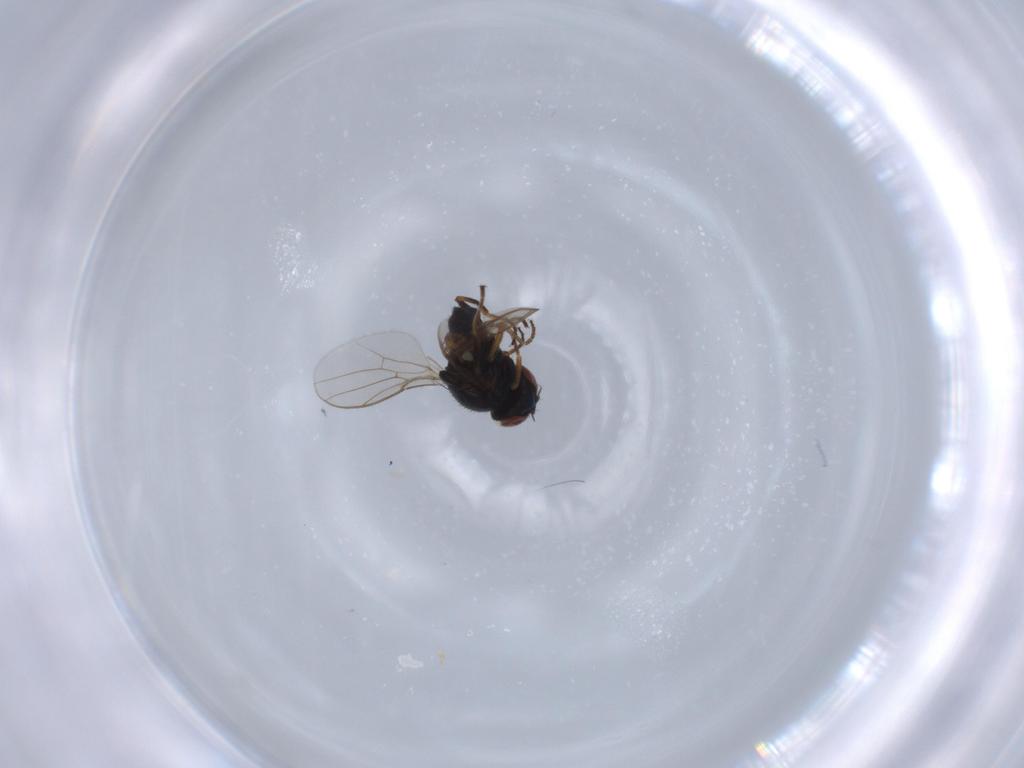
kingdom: Animalia
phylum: Arthropoda
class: Insecta
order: Diptera
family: Chloropidae
